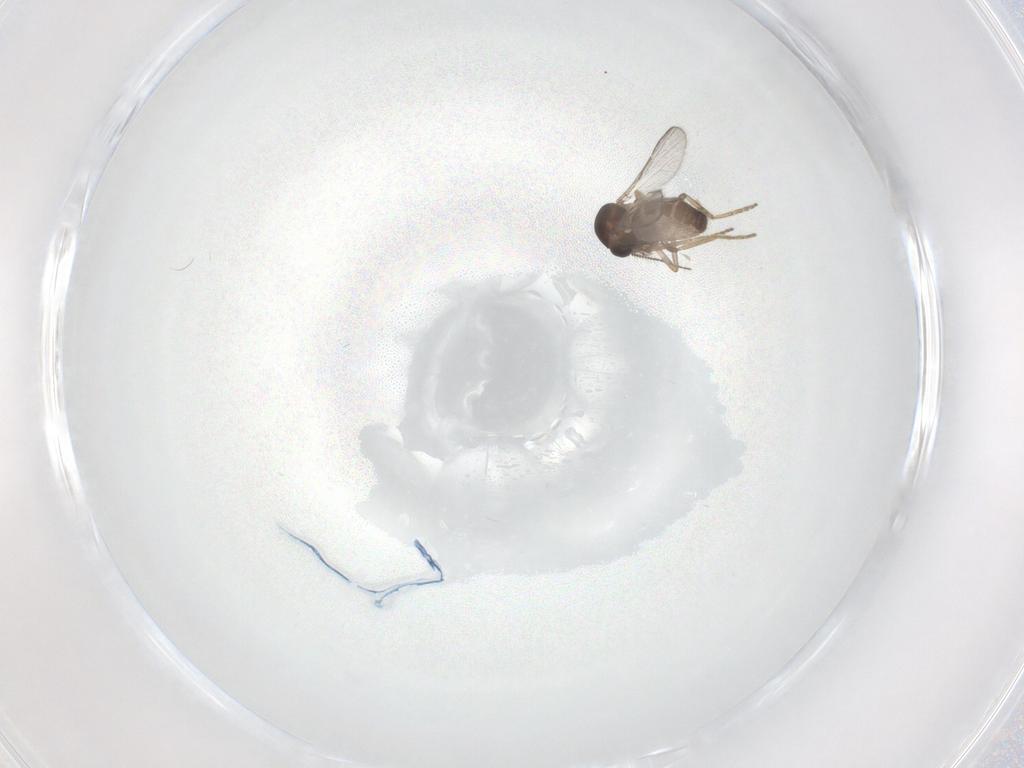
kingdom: Animalia
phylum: Arthropoda
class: Insecta
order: Diptera
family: Ceratopogonidae
